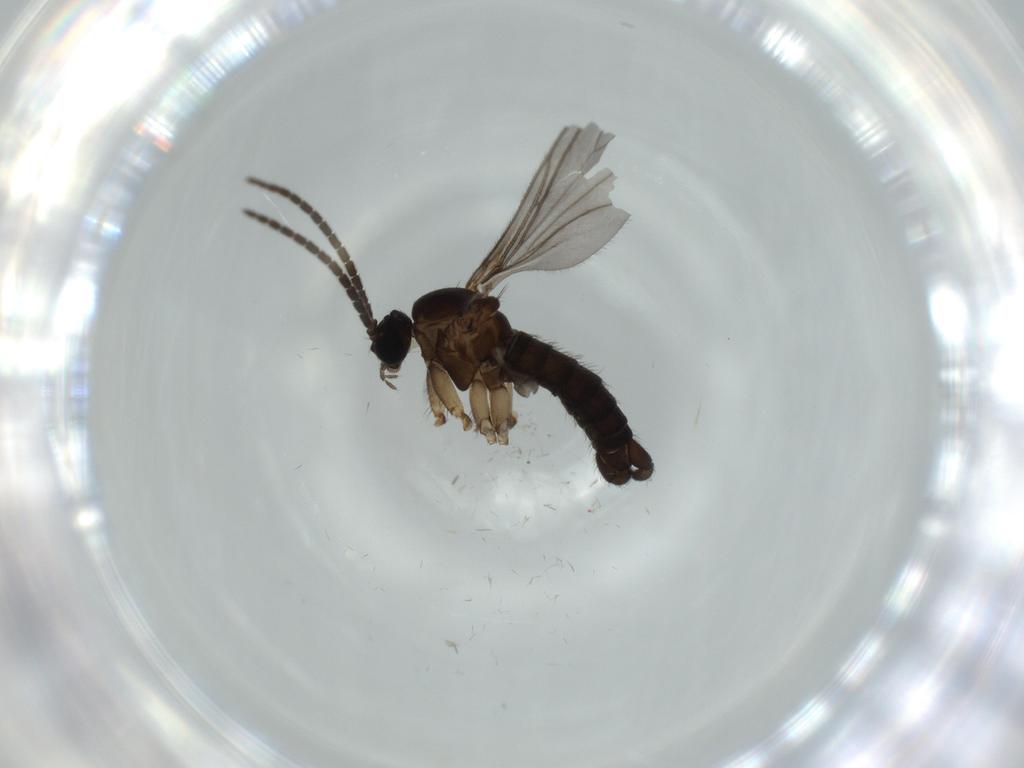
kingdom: Animalia
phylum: Arthropoda
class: Insecta
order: Diptera
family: Sciaridae
